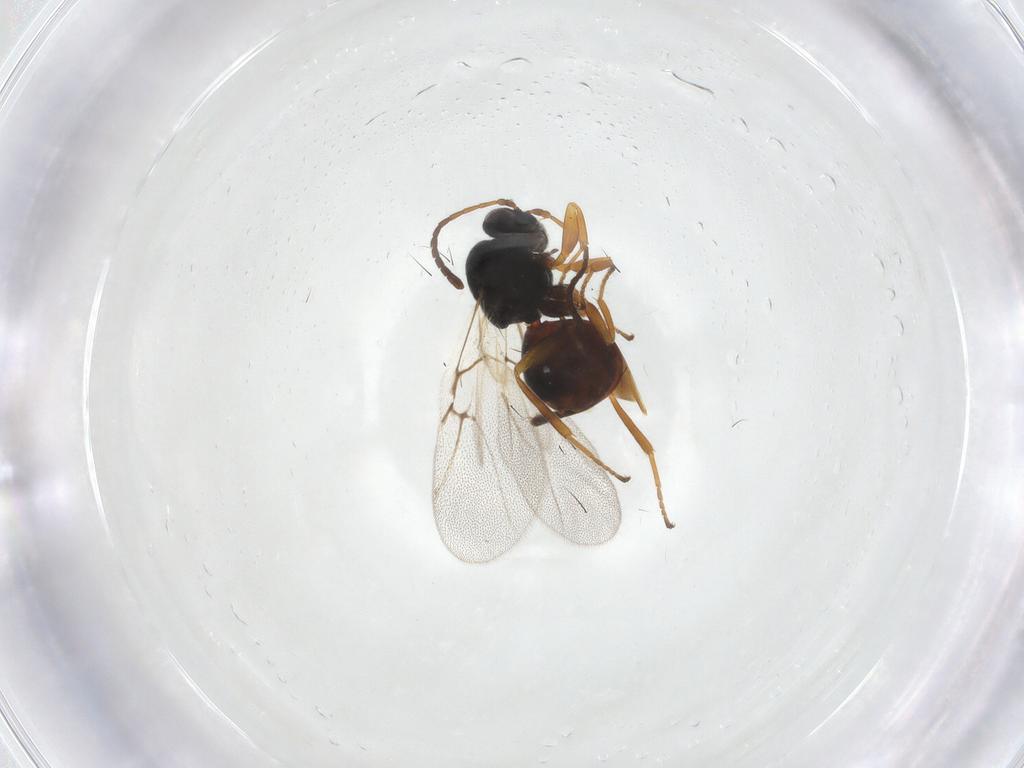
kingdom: Animalia
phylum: Arthropoda
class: Insecta
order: Hymenoptera
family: Cynipidae
